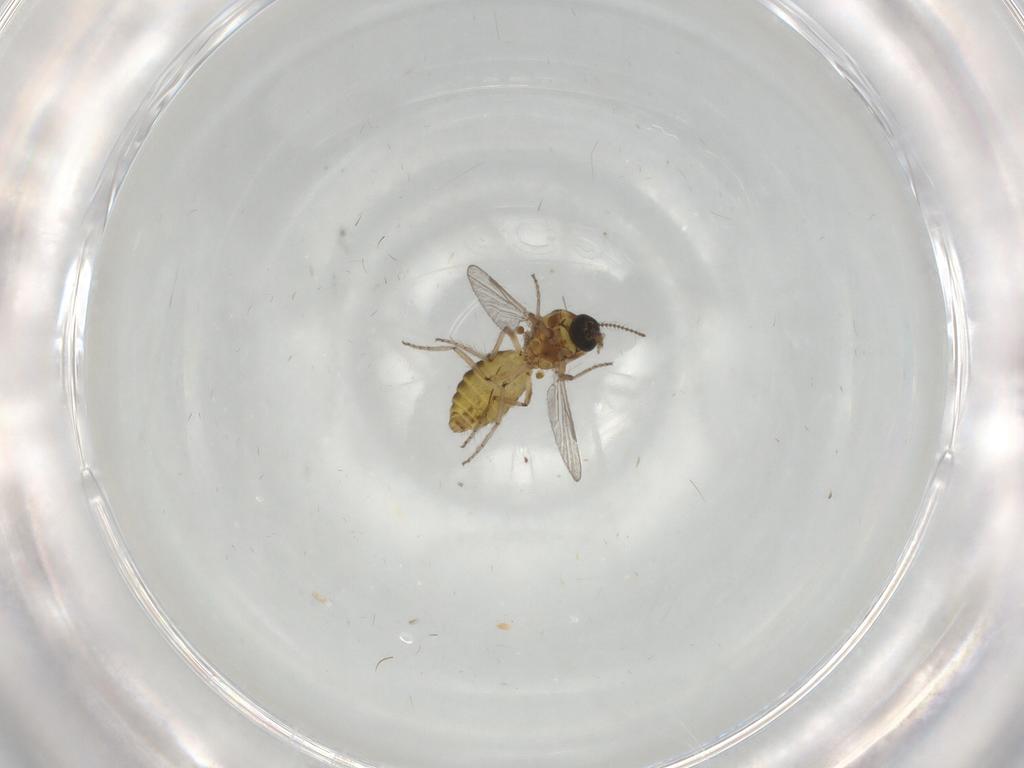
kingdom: Animalia
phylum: Arthropoda
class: Insecta
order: Diptera
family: Ceratopogonidae
